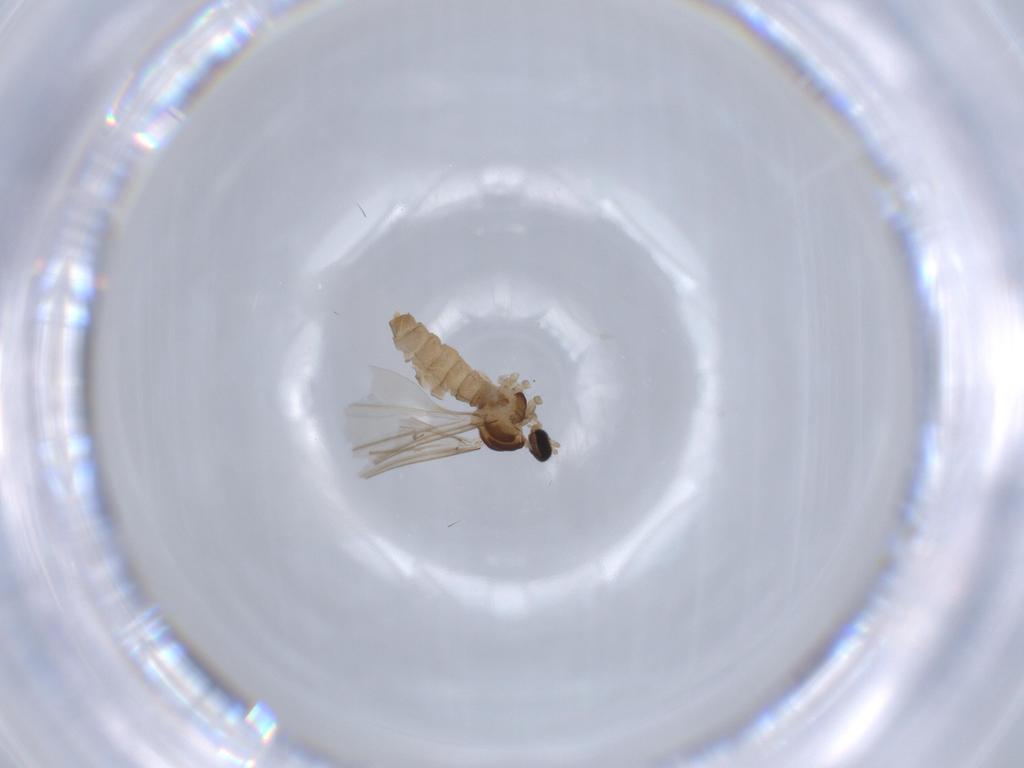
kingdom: Animalia
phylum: Arthropoda
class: Insecta
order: Diptera
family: Cecidomyiidae
